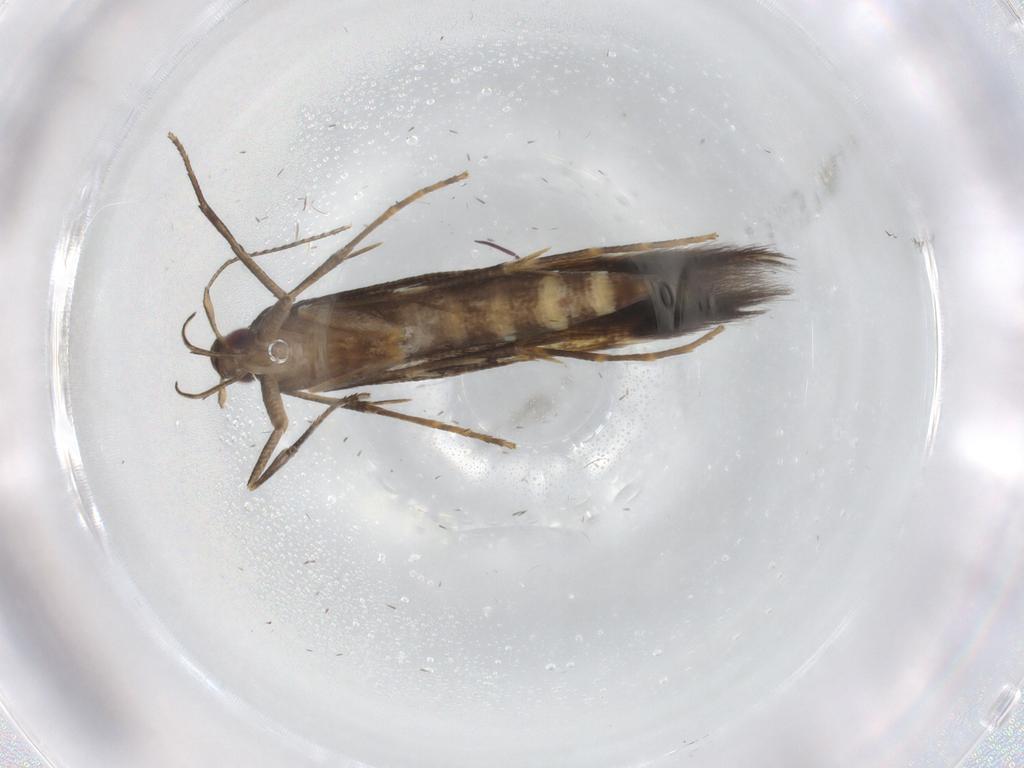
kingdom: Animalia
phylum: Arthropoda
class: Insecta
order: Lepidoptera
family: Cosmopterigidae
